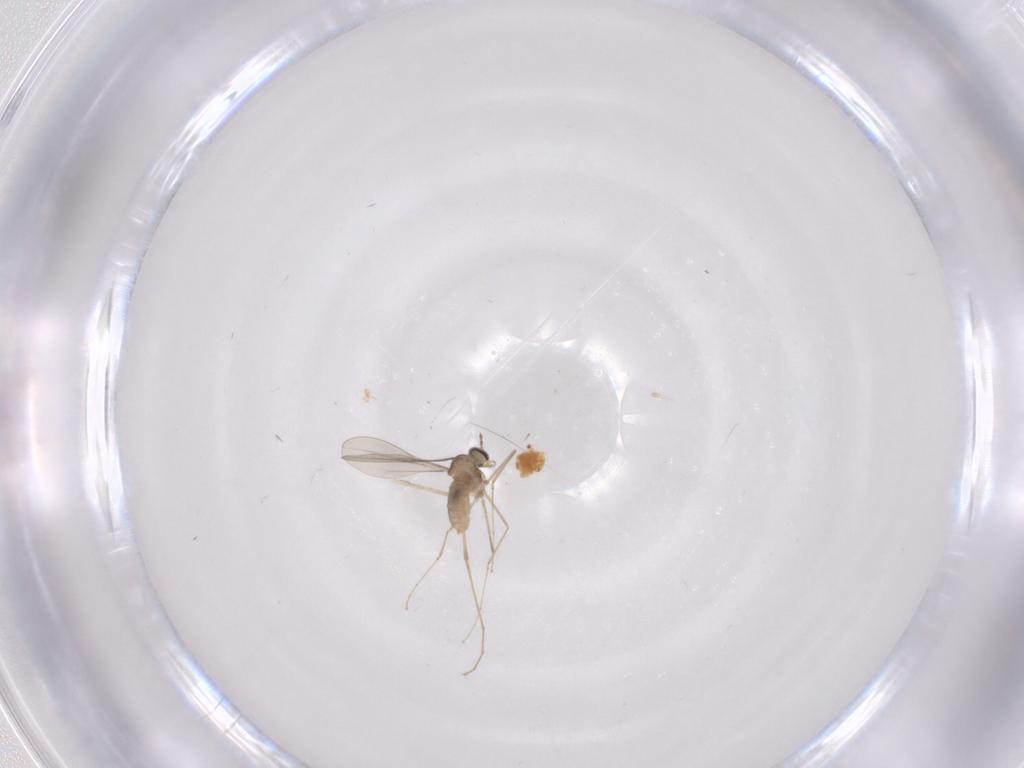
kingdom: Animalia
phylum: Arthropoda
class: Insecta
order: Diptera
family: Cecidomyiidae
